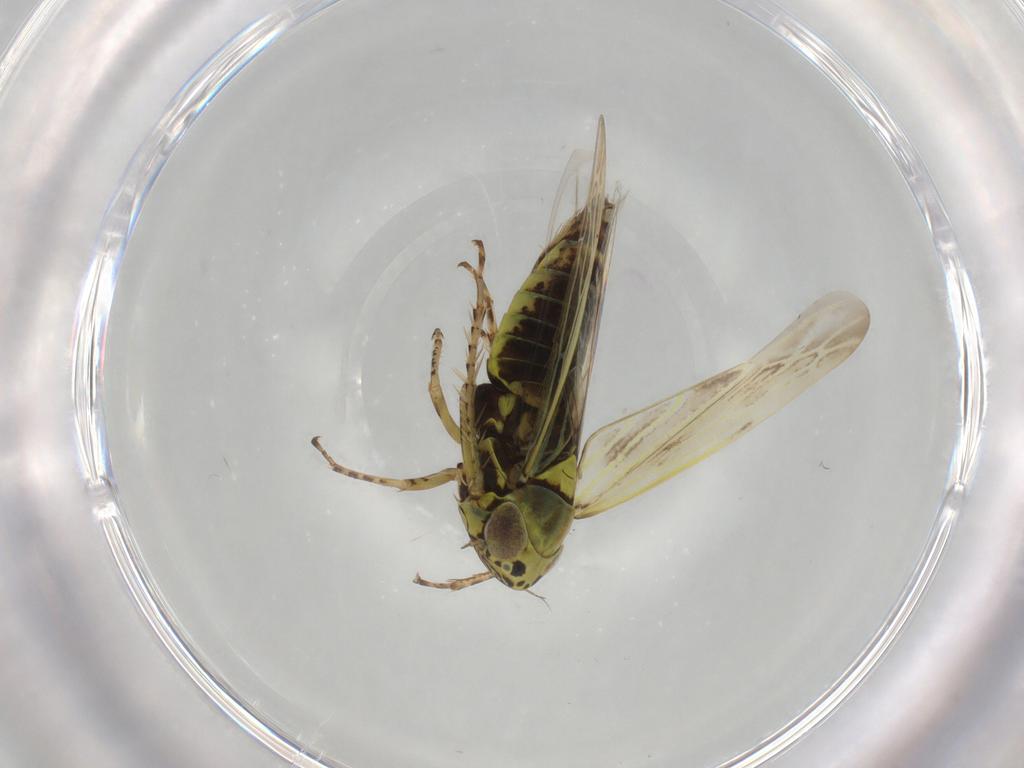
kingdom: Animalia
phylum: Arthropoda
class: Insecta
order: Hemiptera
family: Cicadellidae
